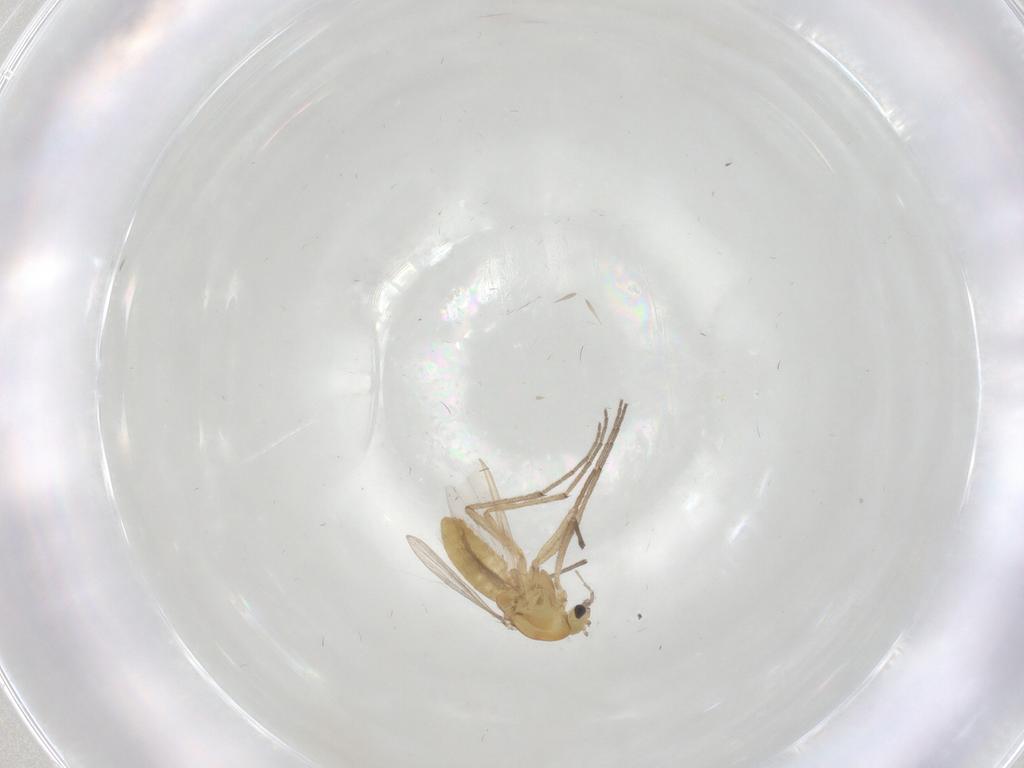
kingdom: Animalia
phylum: Arthropoda
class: Insecta
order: Diptera
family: Chironomidae
